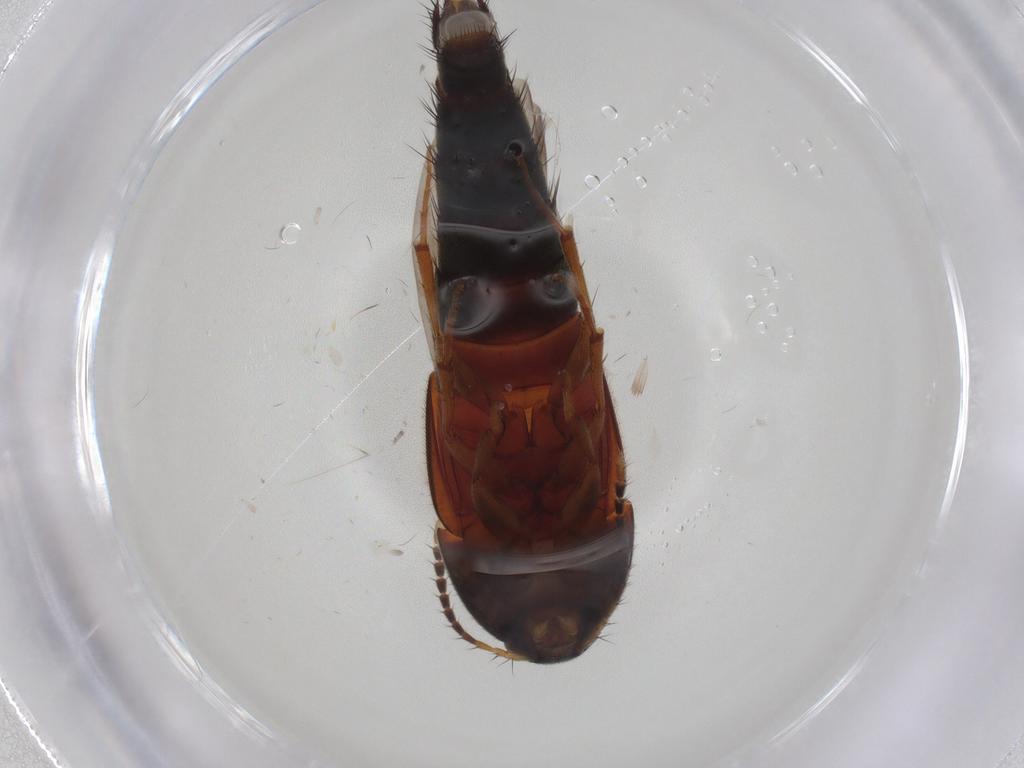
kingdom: Animalia
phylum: Arthropoda
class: Insecta
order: Coleoptera
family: Staphylinidae
